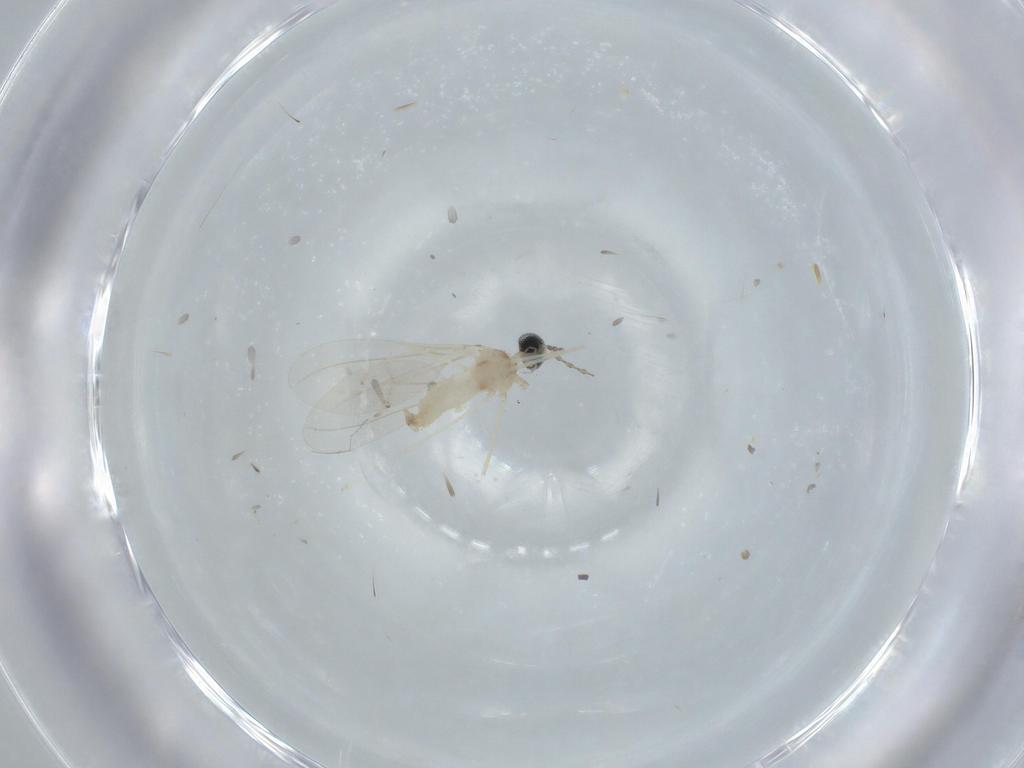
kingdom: Animalia
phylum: Arthropoda
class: Insecta
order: Diptera
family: Cecidomyiidae
